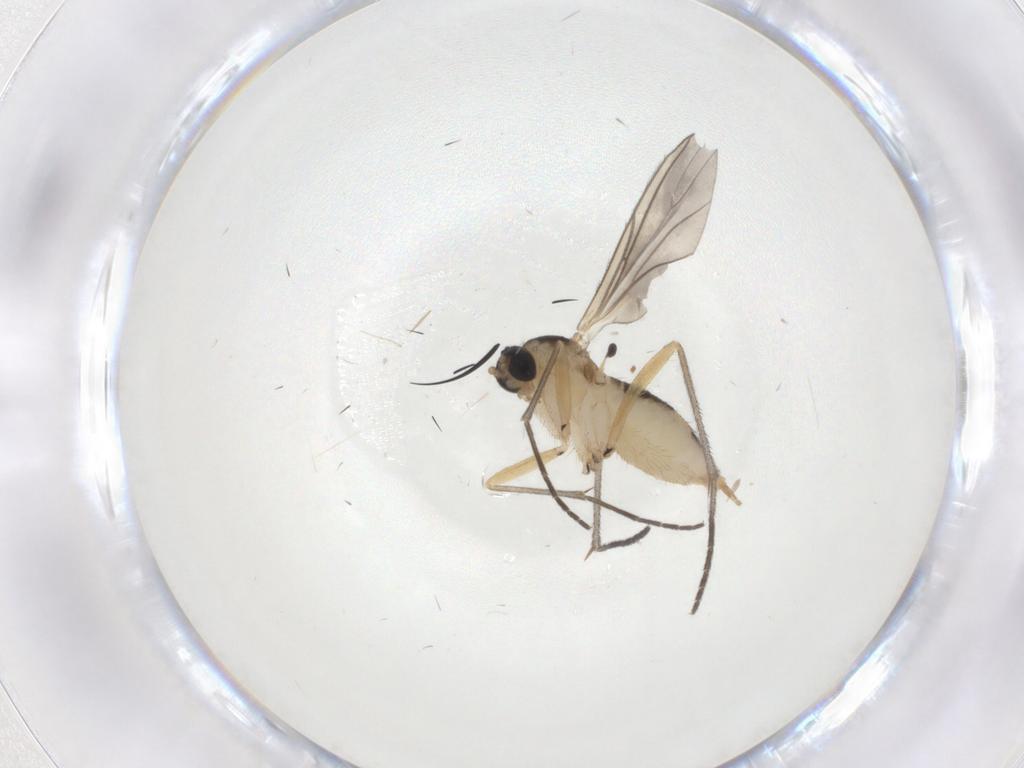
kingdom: Animalia
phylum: Arthropoda
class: Insecta
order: Diptera
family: Sciaridae
